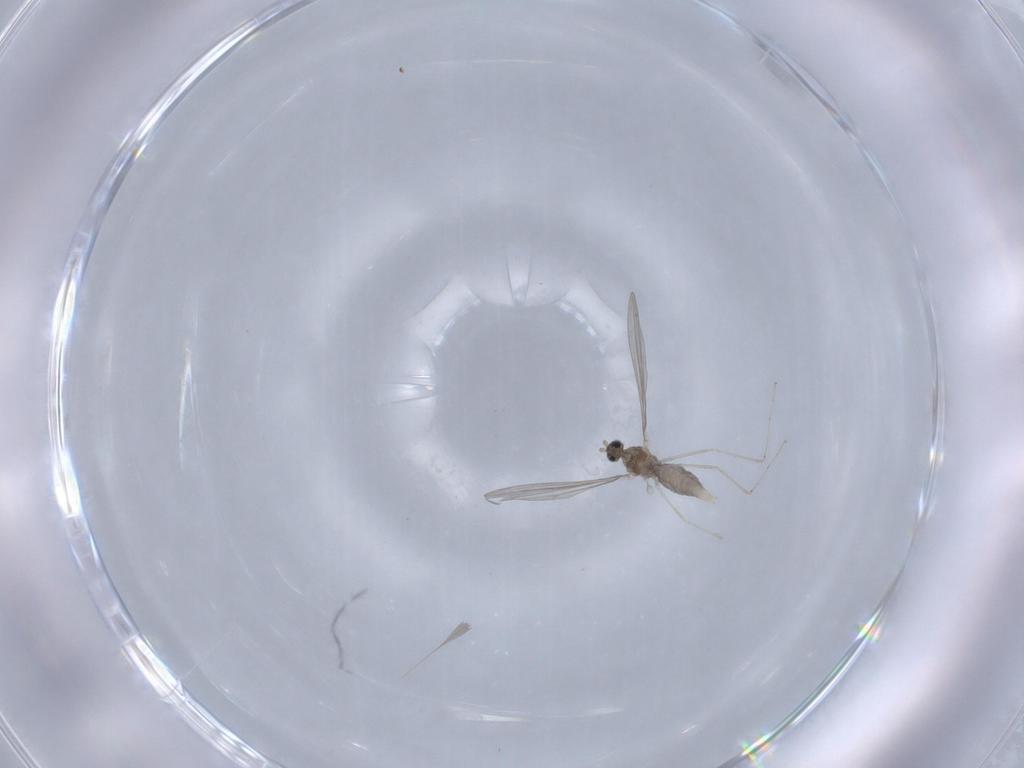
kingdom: Animalia
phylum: Arthropoda
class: Insecta
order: Diptera
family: Cecidomyiidae
